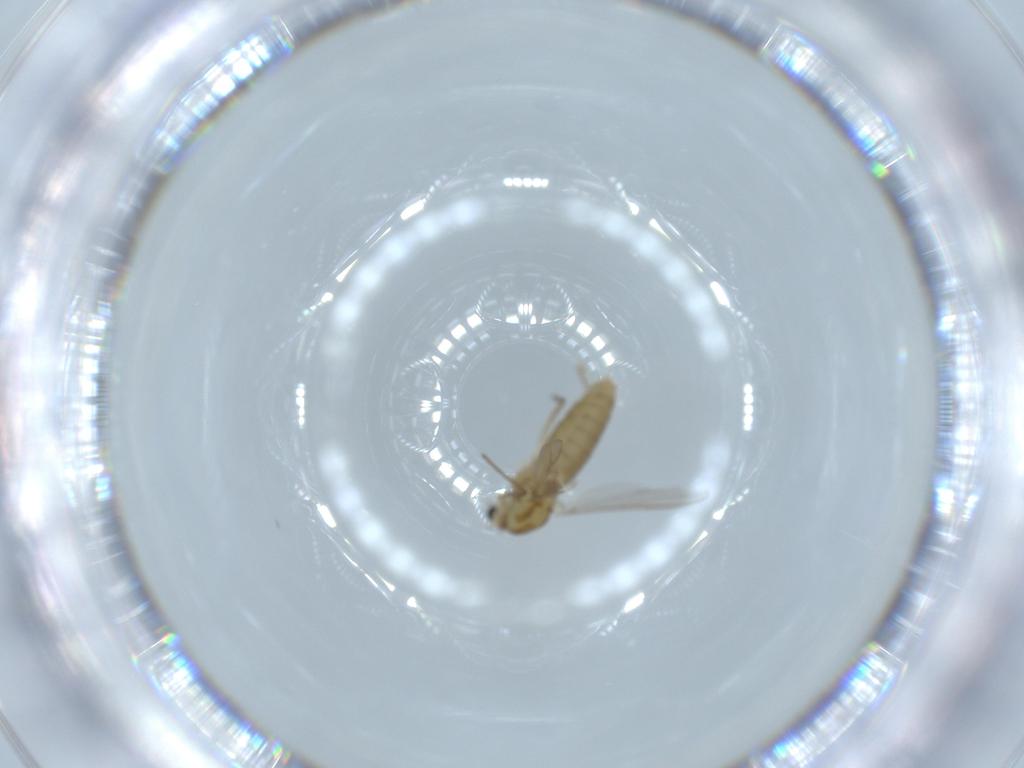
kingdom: Animalia
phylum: Arthropoda
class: Insecta
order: Diptera
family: Chironomidae
